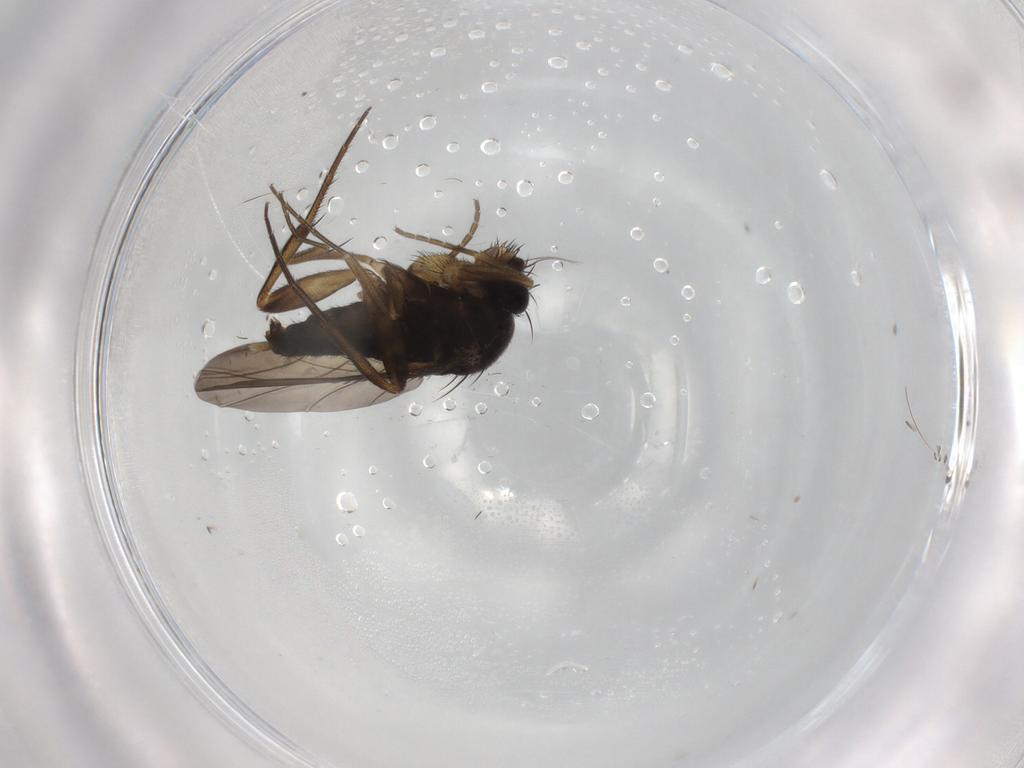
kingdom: Animalia
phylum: Arthropoda
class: Insecta
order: Diptera
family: Phoridae
